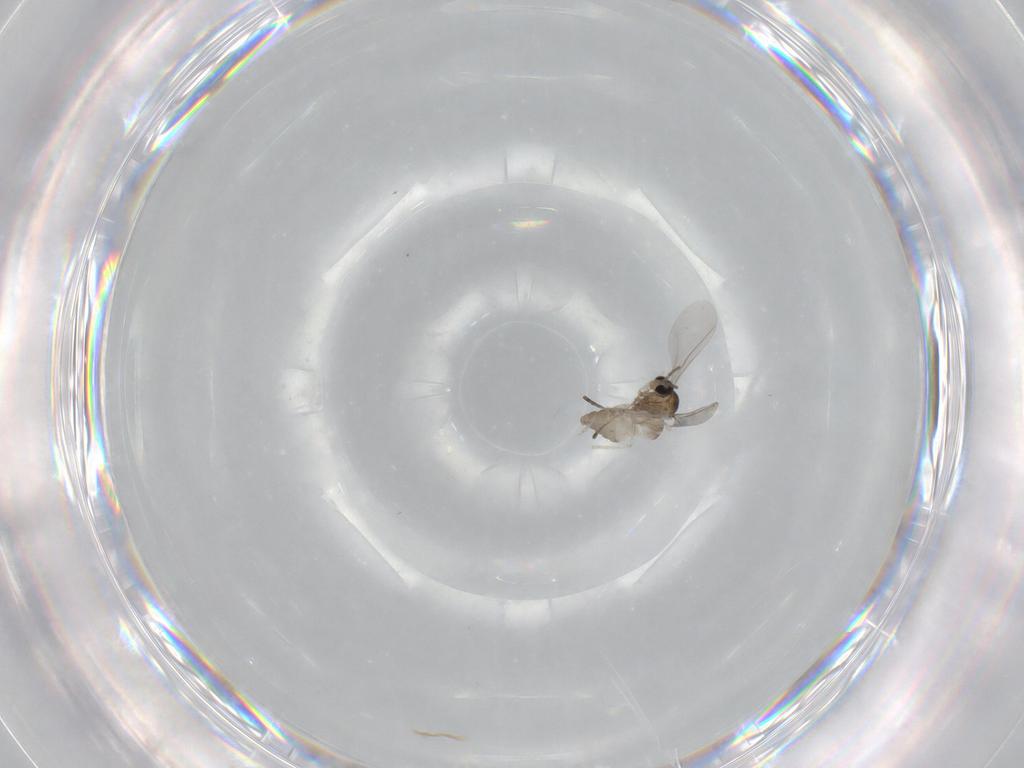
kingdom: Animalia
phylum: Arthropoda
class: Insecta
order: Diptera
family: Cecidomyiidae
